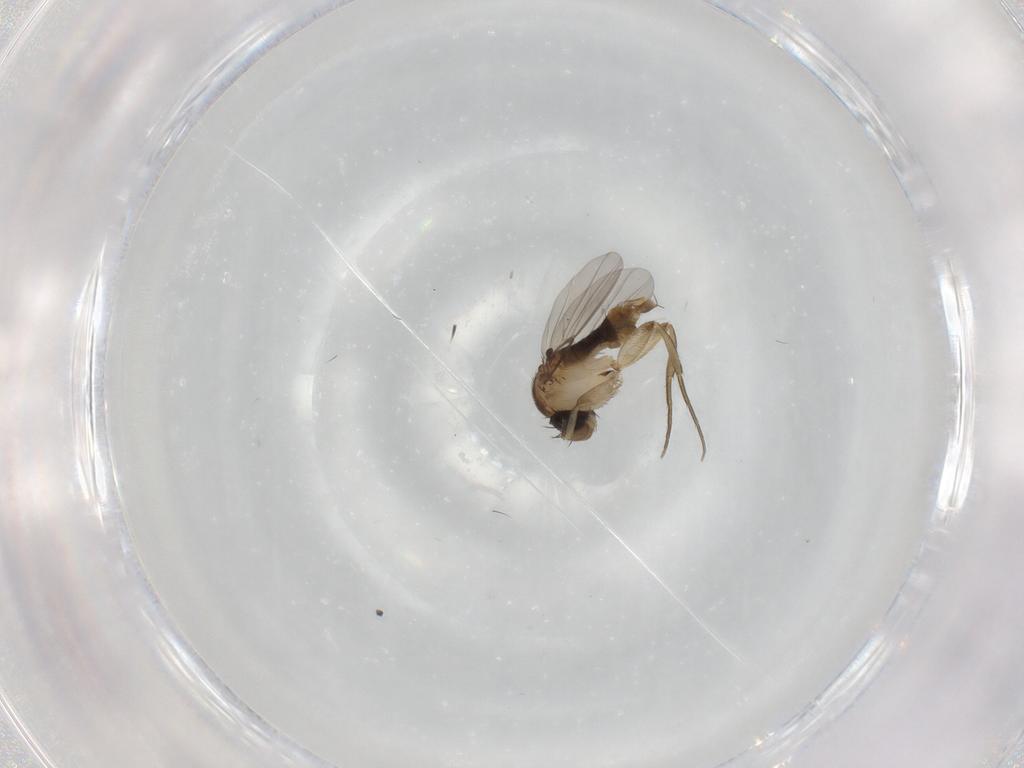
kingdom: Animalia
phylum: Arthropoda
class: Insecta
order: Diptera
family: Phoridae
